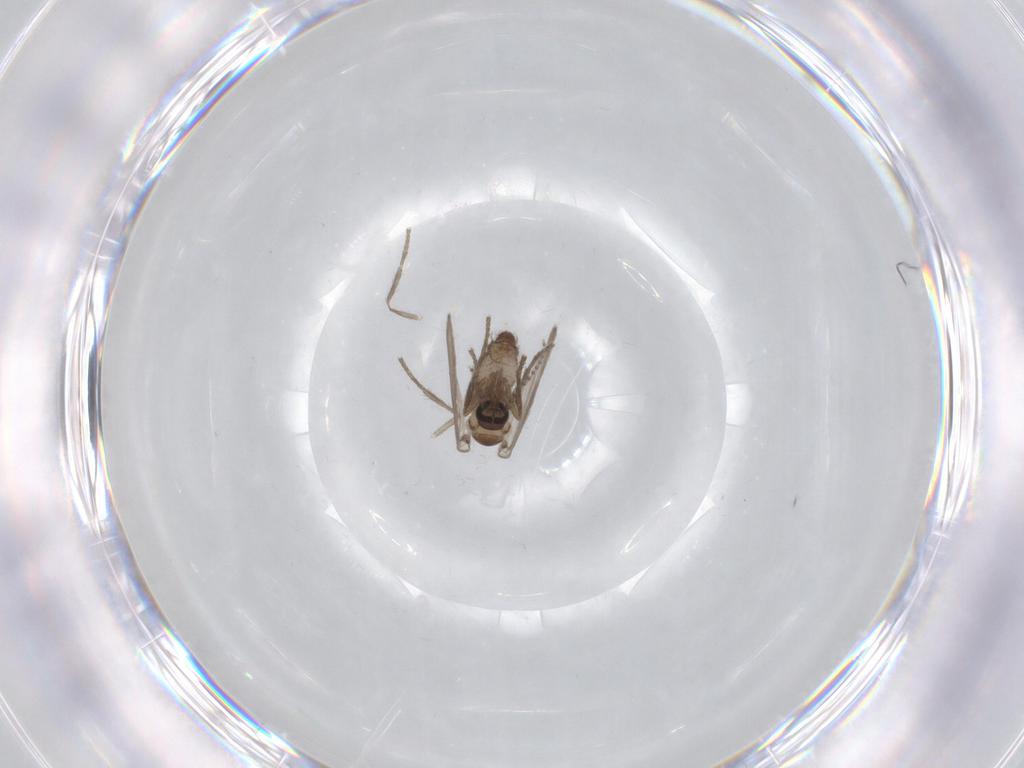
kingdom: Animalia
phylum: Arthropoda
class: Insecta
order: Diptera
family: Psychodidae
